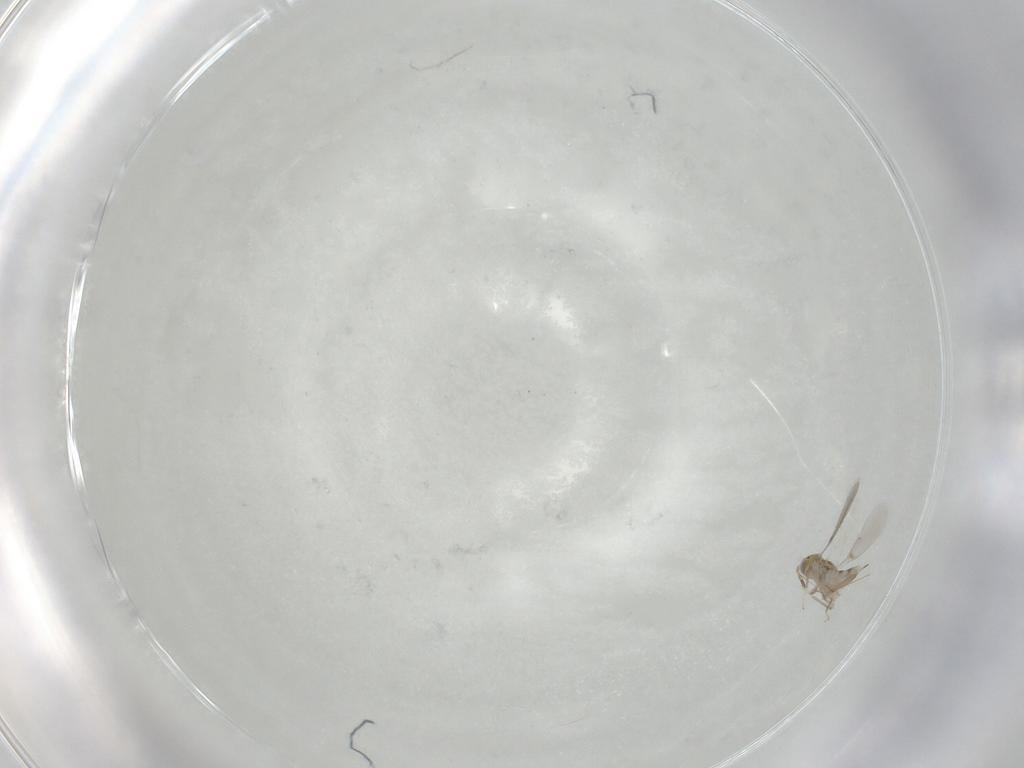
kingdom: Animalia
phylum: Arthropoda
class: Insecta
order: Hymenoptera
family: Aphelinidae
